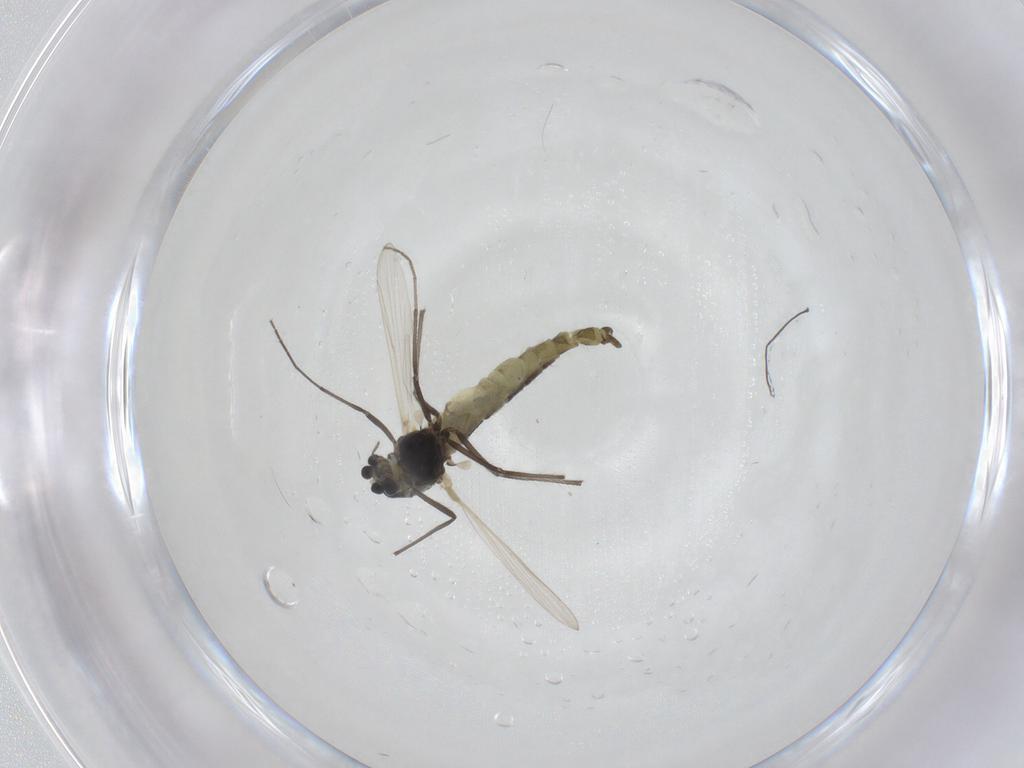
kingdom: Animalia
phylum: Arthropoda
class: Insecta
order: Diptera
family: Chironomidae
